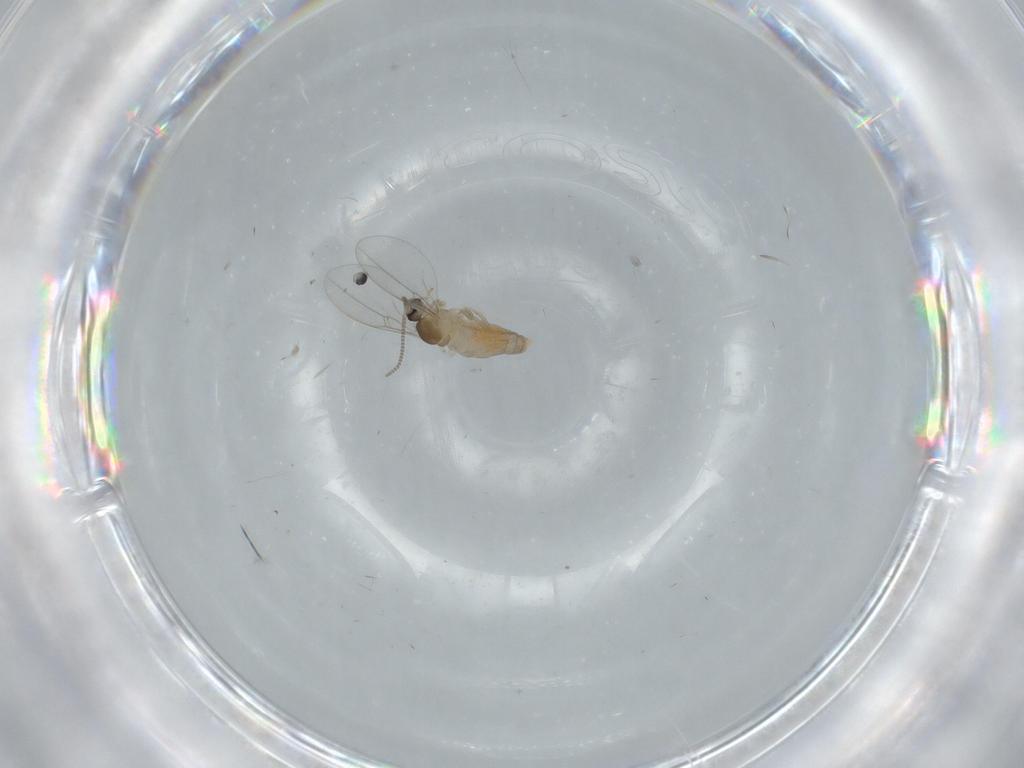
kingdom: Animalia
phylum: Arthropoda
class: Insecta
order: Diptera
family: Cecidomyiidae
